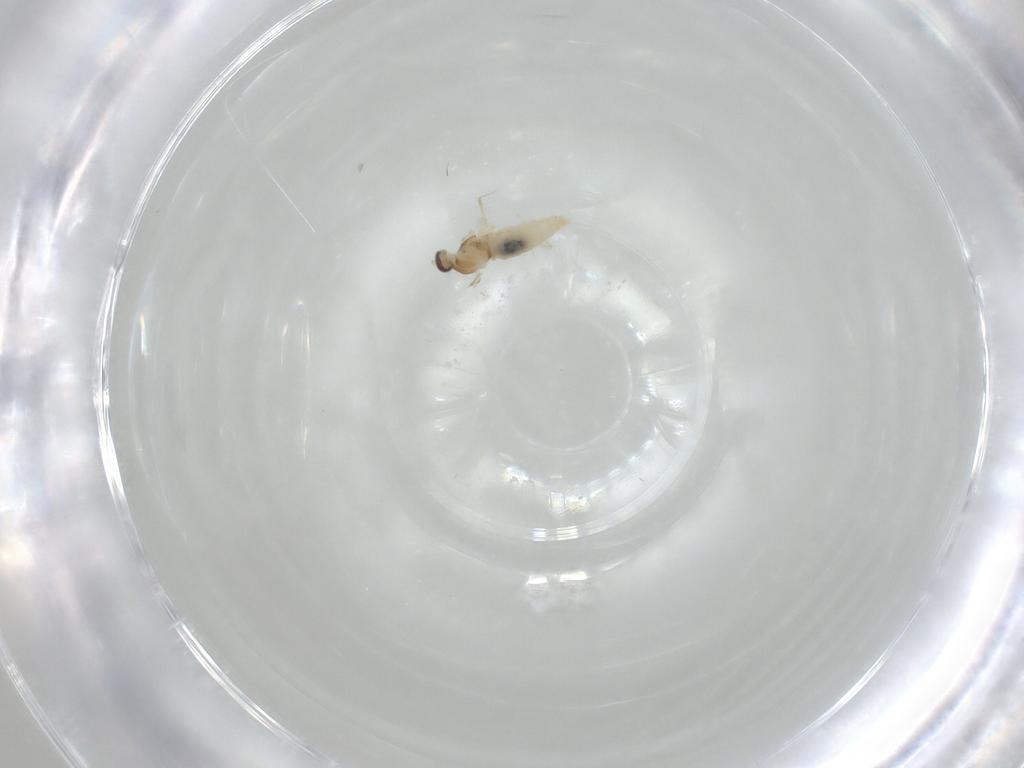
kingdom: Animalia
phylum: Arthropoda
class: Insecta
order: Diptera
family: Cecidomyiidae
